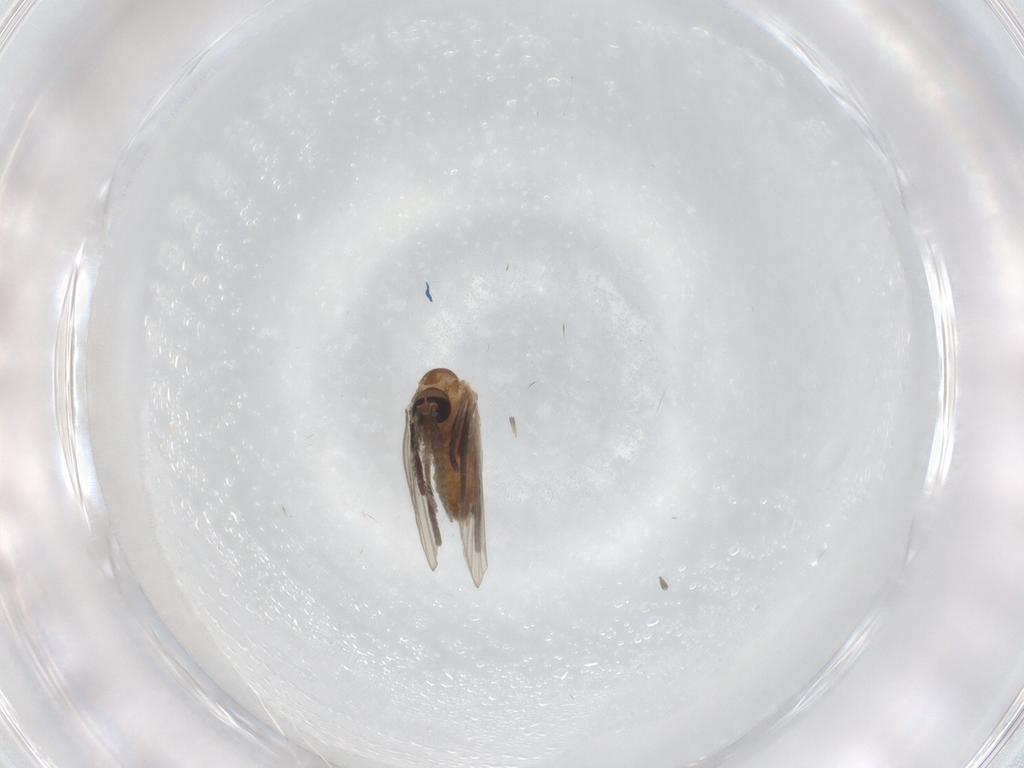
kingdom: Animalia
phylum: Arthropoda
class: Insecta
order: Diptera
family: Psychodidae
